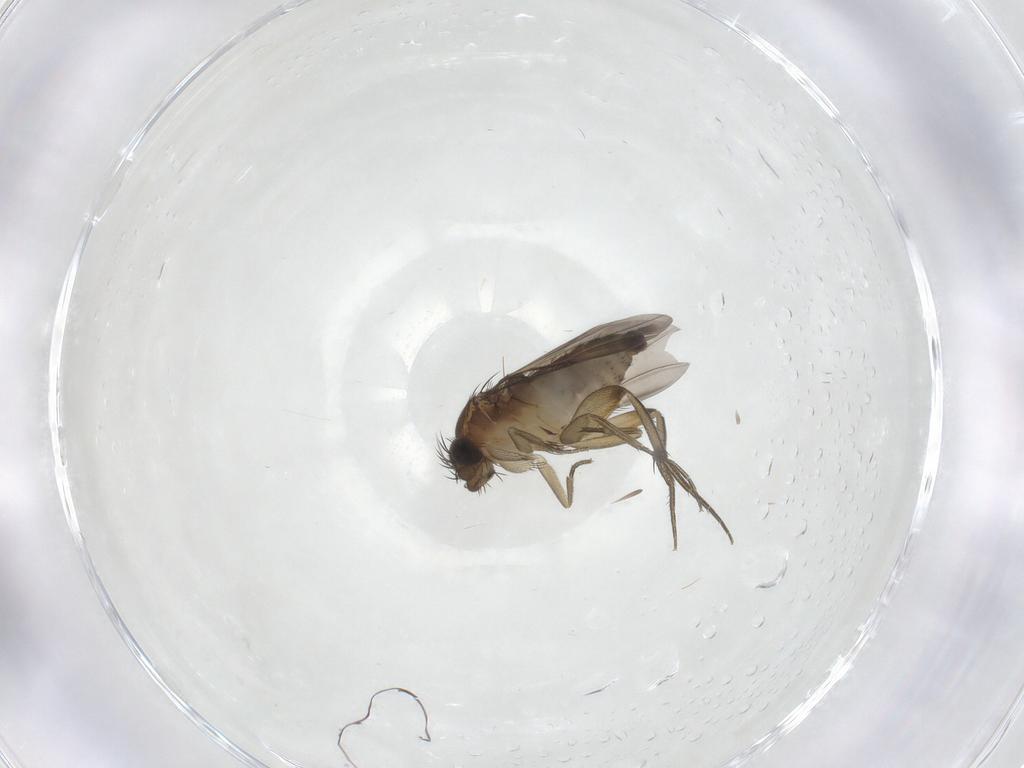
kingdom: Animalia
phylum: Arthropoda
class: Insecta
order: Diptera
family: Phoridae
